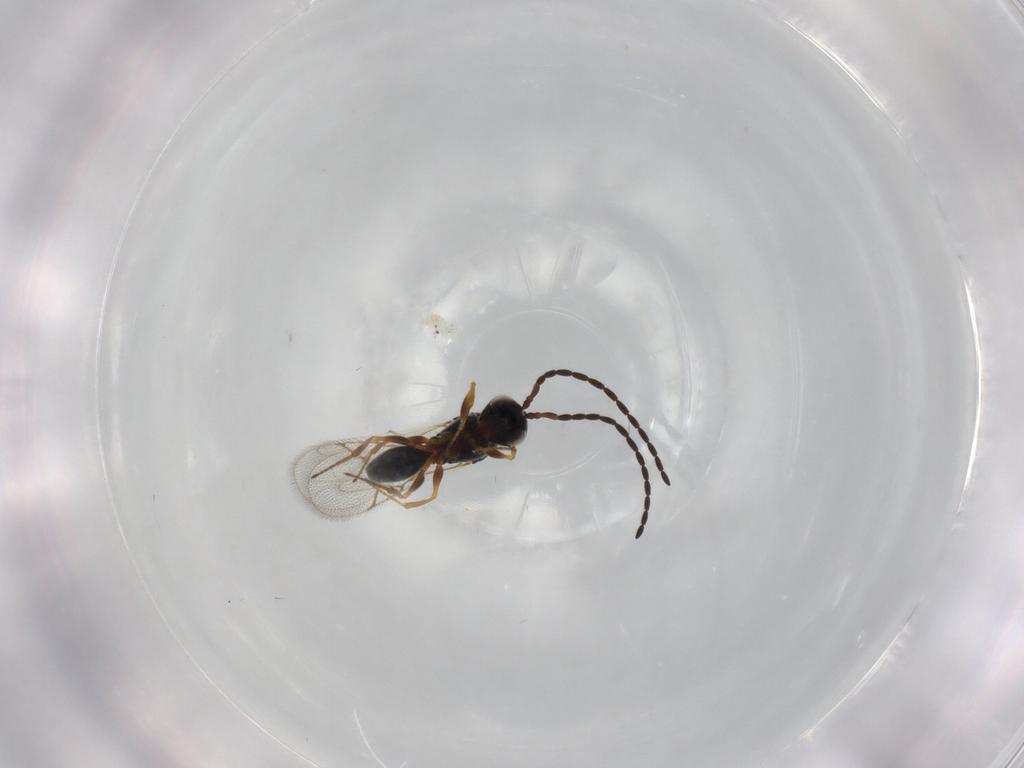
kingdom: Animalia
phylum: Arthropoda
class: Insecta
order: Hymenoptera
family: Figitidae
